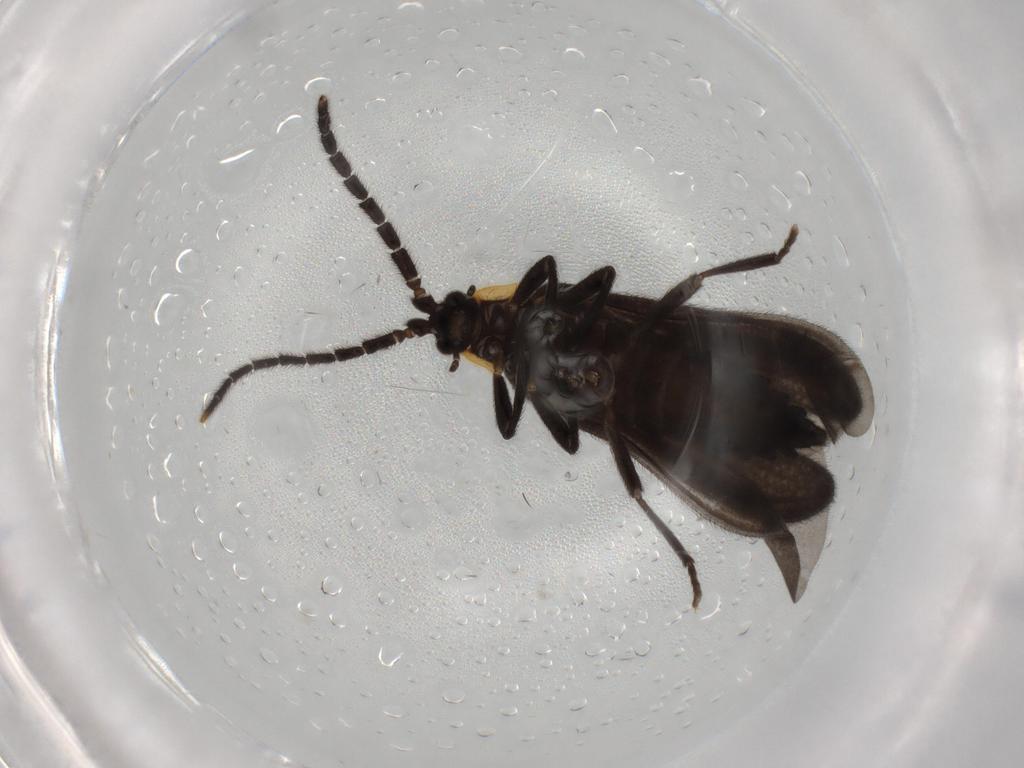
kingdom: Animalia
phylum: Arthropoda
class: Insecta
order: Coleoptera
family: Lycidae
